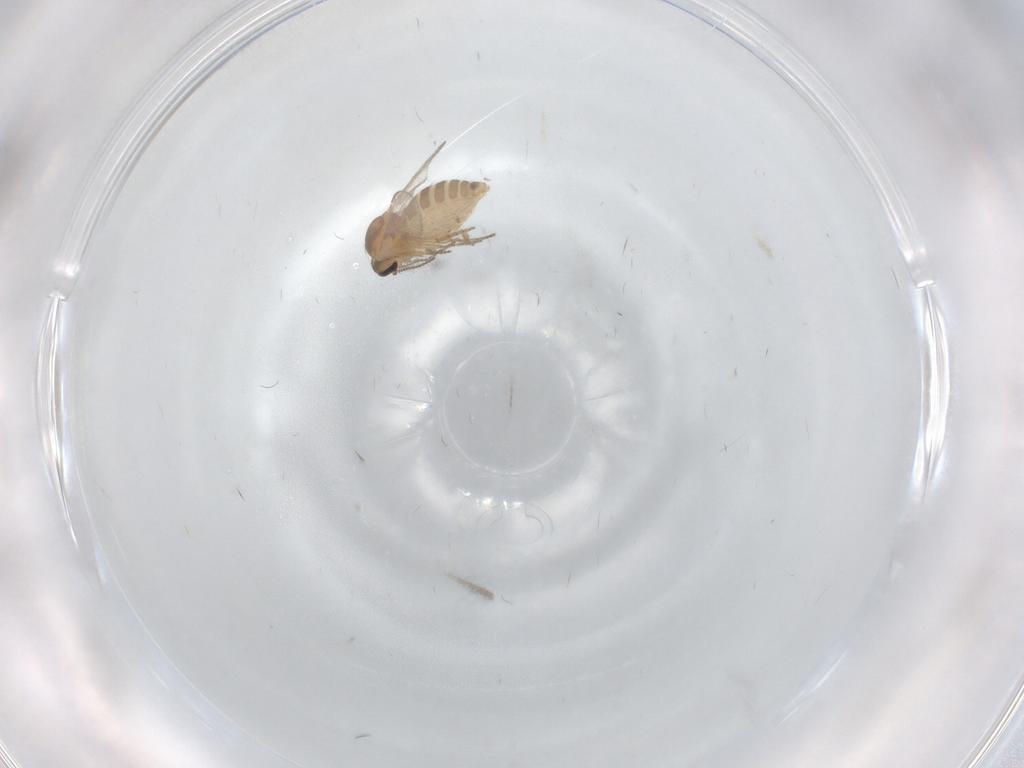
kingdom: Animalia
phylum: Arthropoda
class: Insecta
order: Diptera
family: Ceratopogonidae
